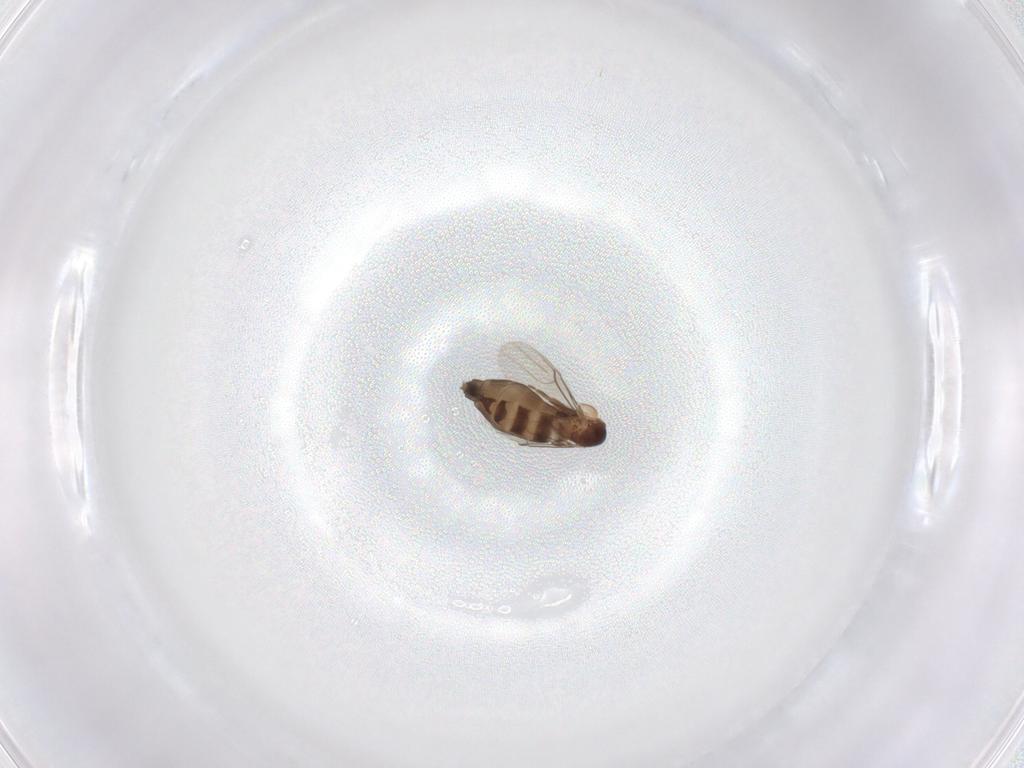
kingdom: Animalia
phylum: Arthropoda
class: Insecta
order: Diptera
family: Phoridae
